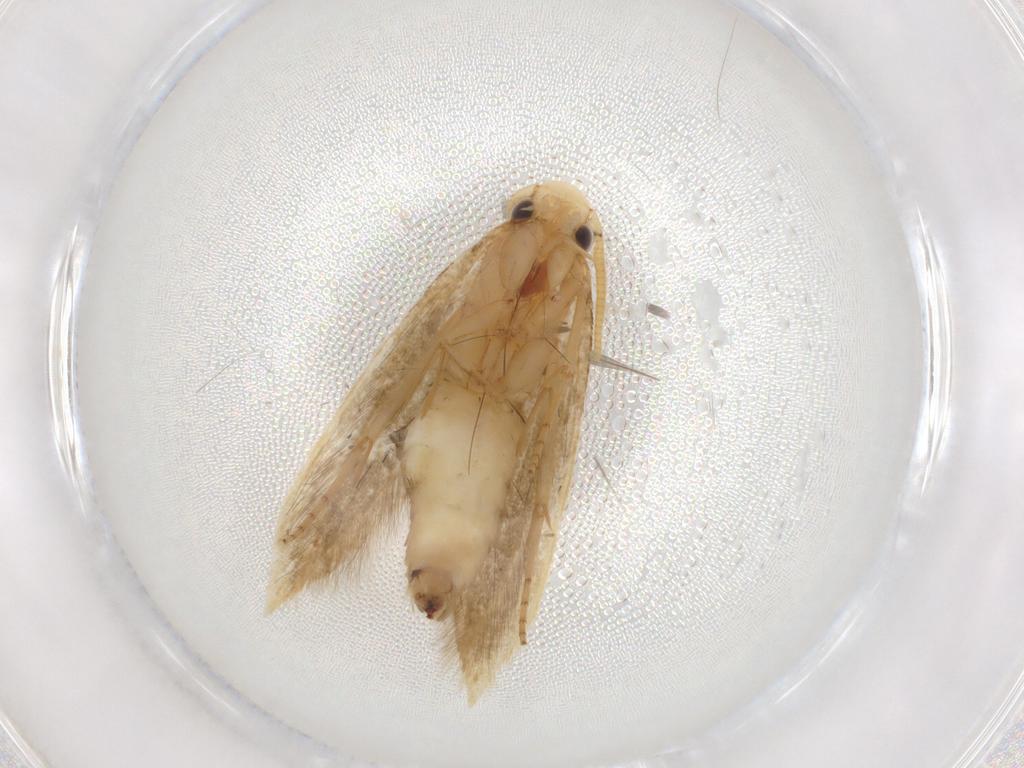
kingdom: Animalia
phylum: Arthropoda
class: Insecta
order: Lepidoptera
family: Tineidae
